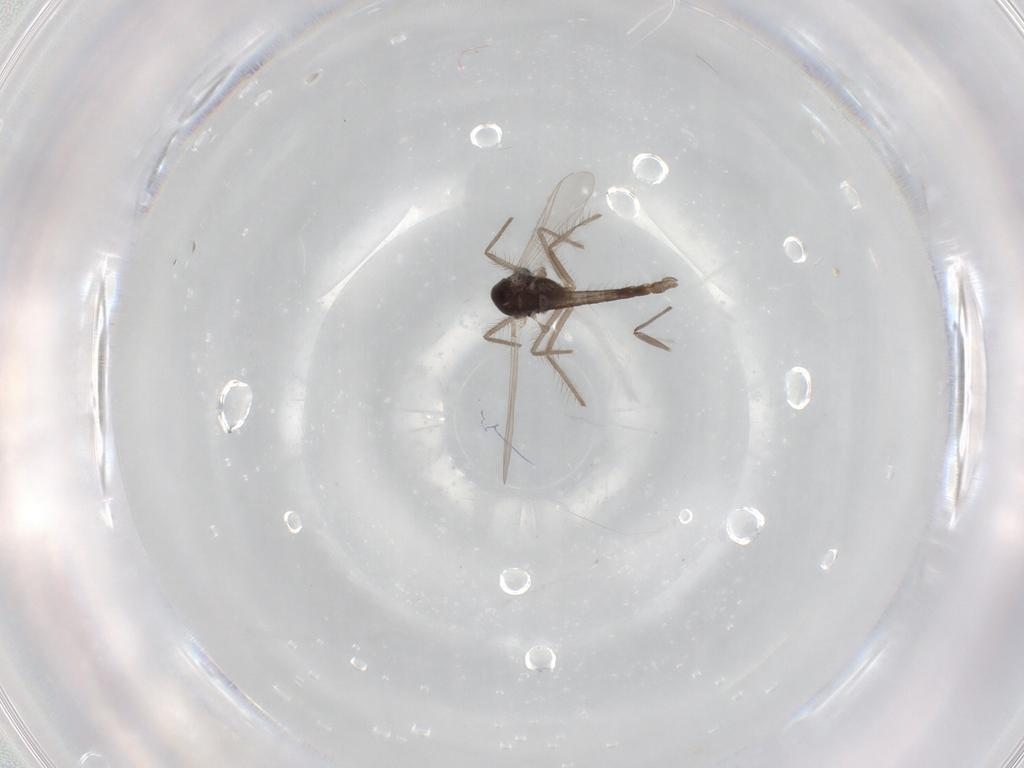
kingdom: Animalia
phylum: Arthropoda
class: Insecta
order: Diptera
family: Chironomidae
